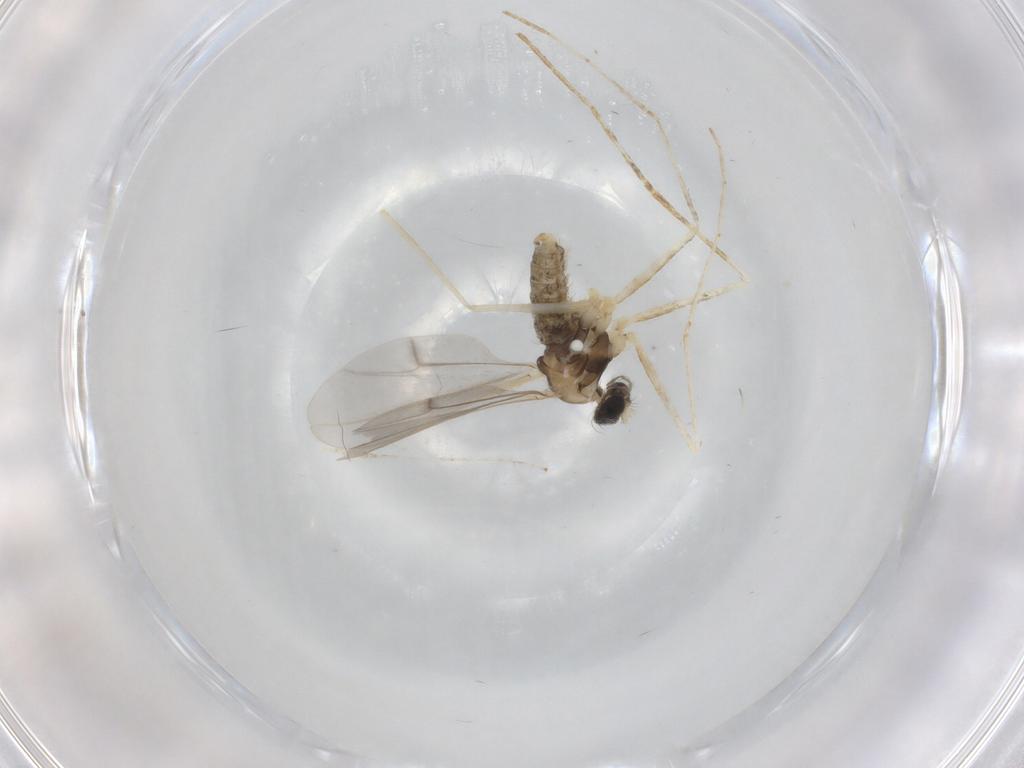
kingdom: Animalia
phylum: Arthropoda
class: Insecta
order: Diptera
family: Cecidomyiidae
